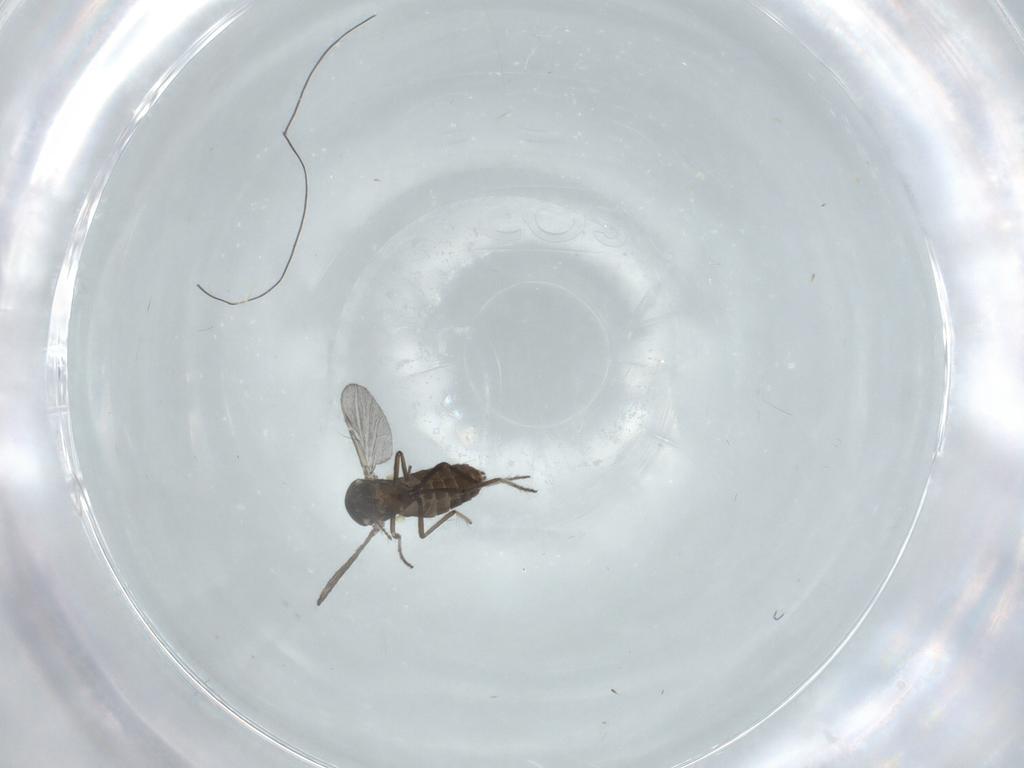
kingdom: Animalia
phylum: Arthropoda
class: Insecta
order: Diptera
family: Ceratopogonidae
